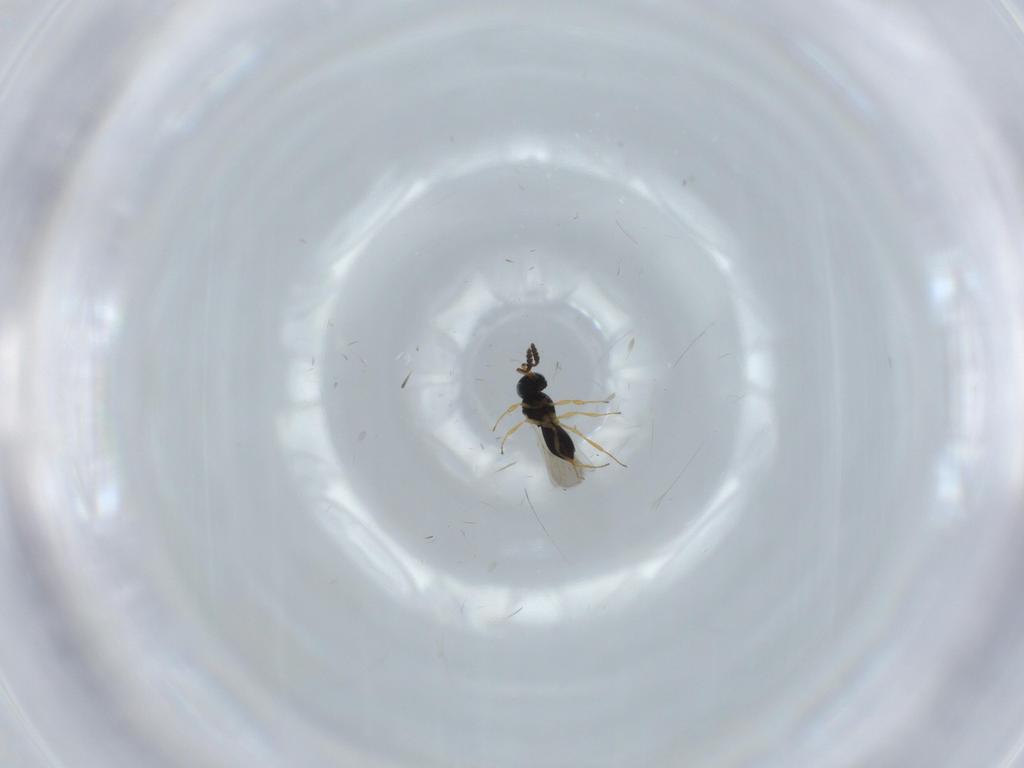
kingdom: Animalia
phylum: Arthropoda
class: Insecta
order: Hymenoptera
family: Scelionidae
